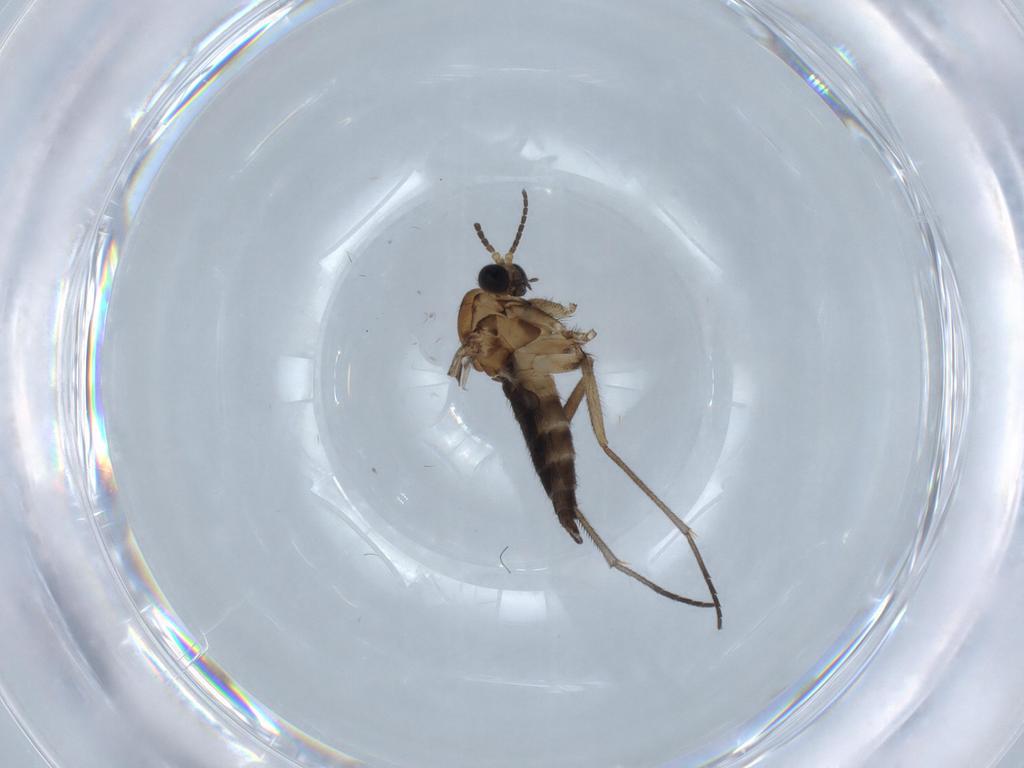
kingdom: Animalia
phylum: Arthropoda
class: Insecta
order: Diptera
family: Sciaridae
